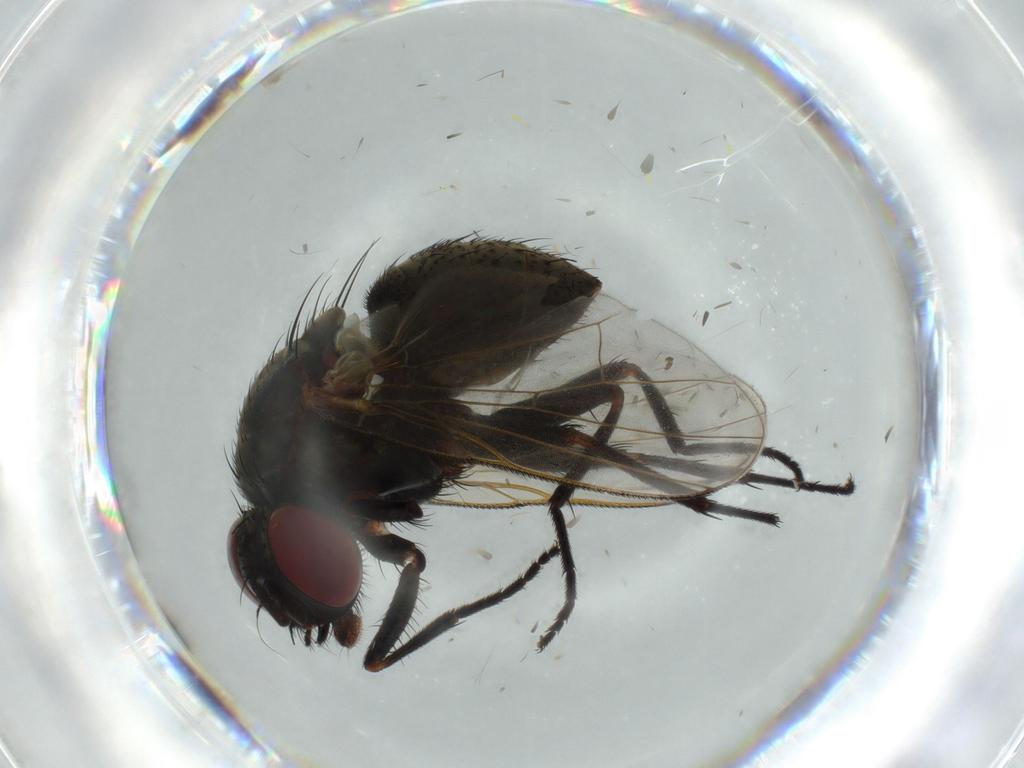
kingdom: Animalia
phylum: Arthropoda
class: Insecta
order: Diptera
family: Muscidae
